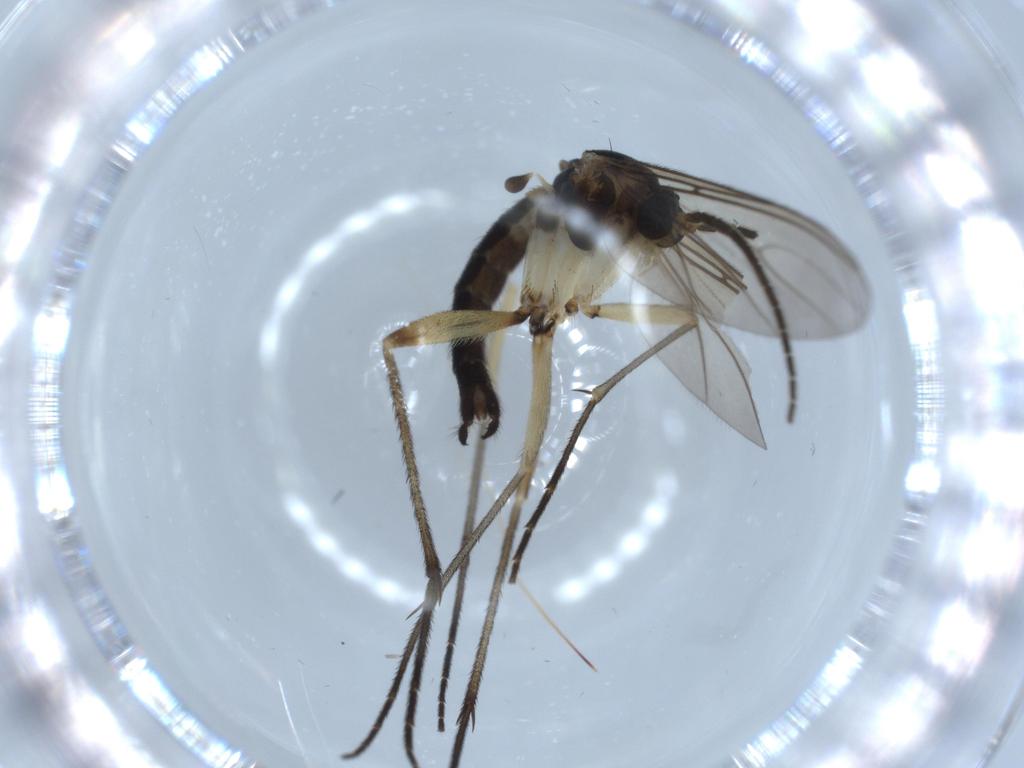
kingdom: Animalia
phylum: Arthropoda
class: Insecta
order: Diptera
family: Sciaridae
